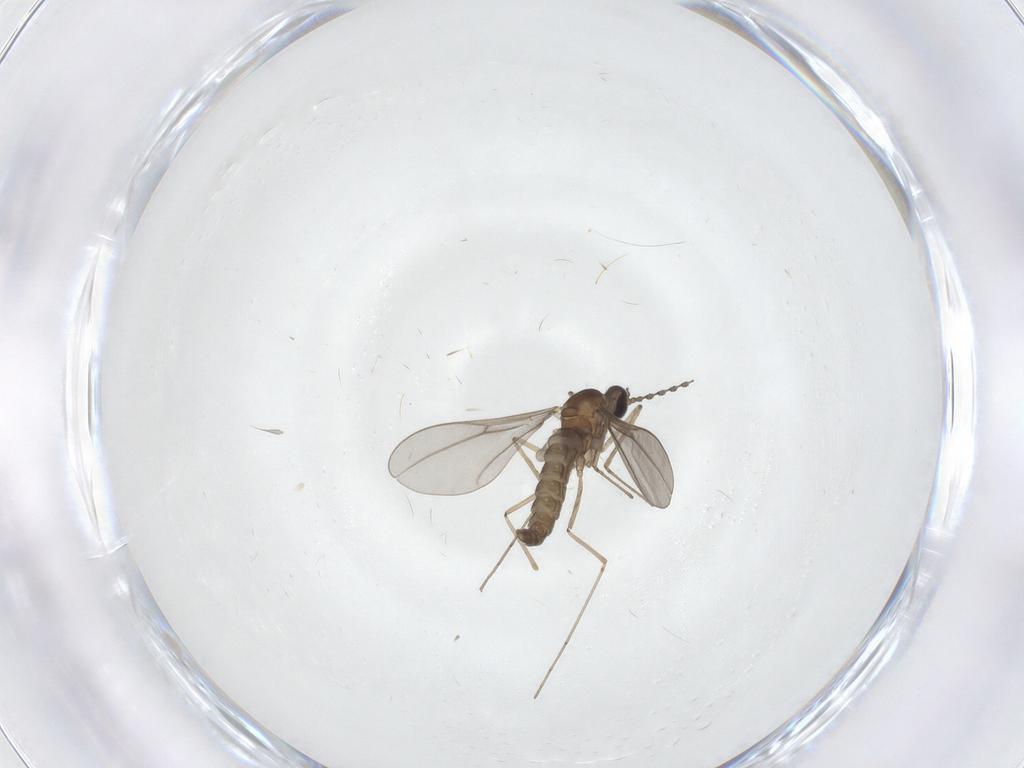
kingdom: Animalia
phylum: Arthropoda
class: Insecta
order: Diptera
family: Cecidomyiidae
